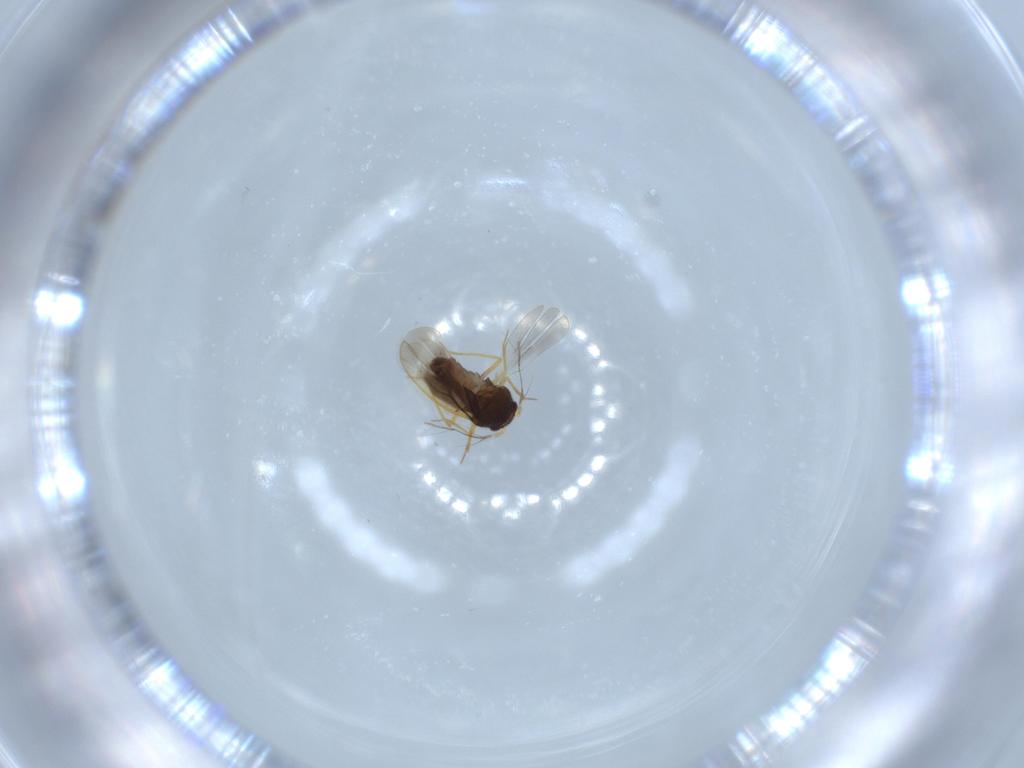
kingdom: Animalia
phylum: Arthropoda
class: Insecta
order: Hemiptera
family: Schizopteridae
